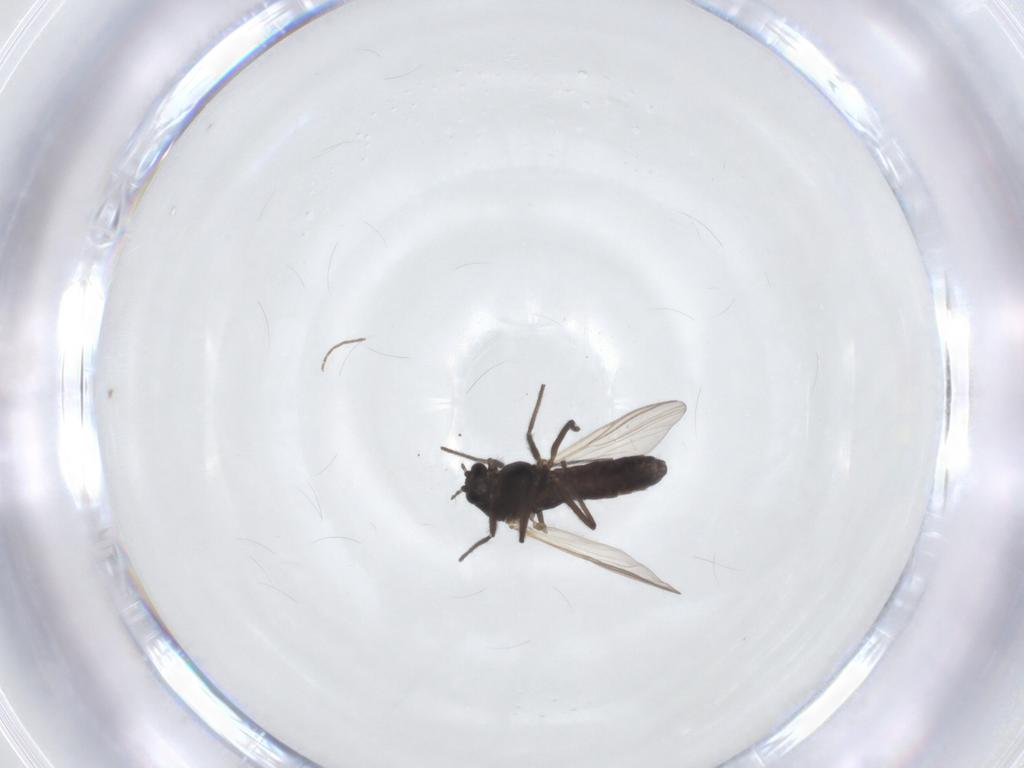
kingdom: Animalia
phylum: Arthropoda
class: Insecta
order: Diptera
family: Chironomidae
